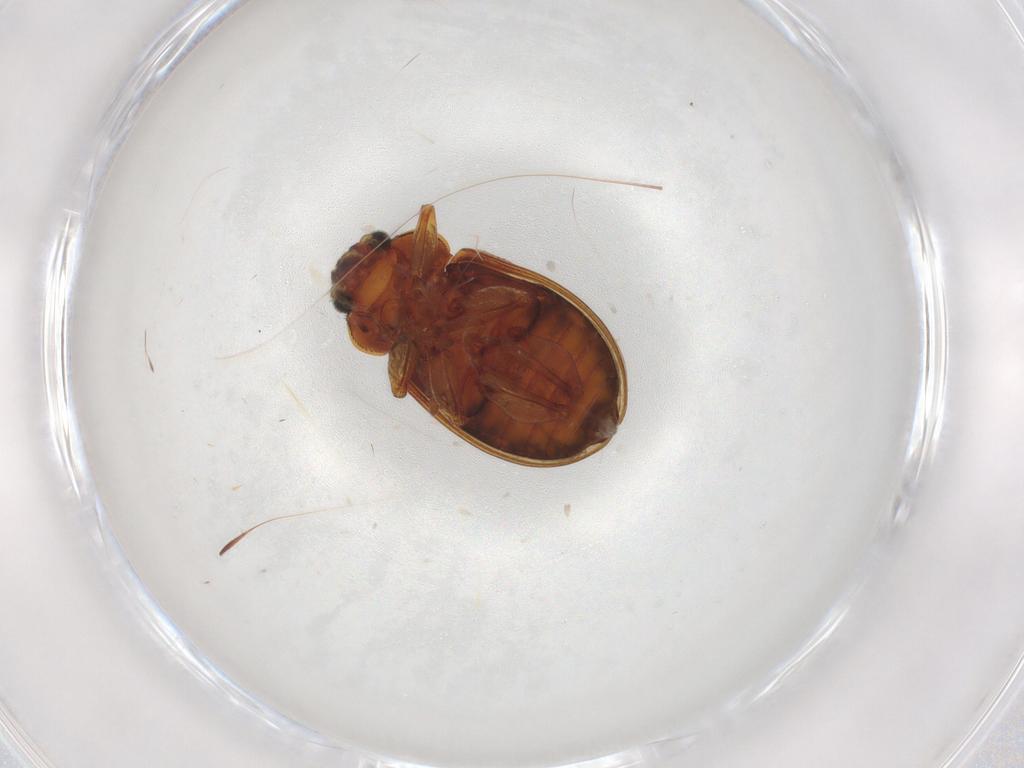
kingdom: Animalia
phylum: Arthropoda
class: Insecta
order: Coleoptera
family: Chrysomelidae
